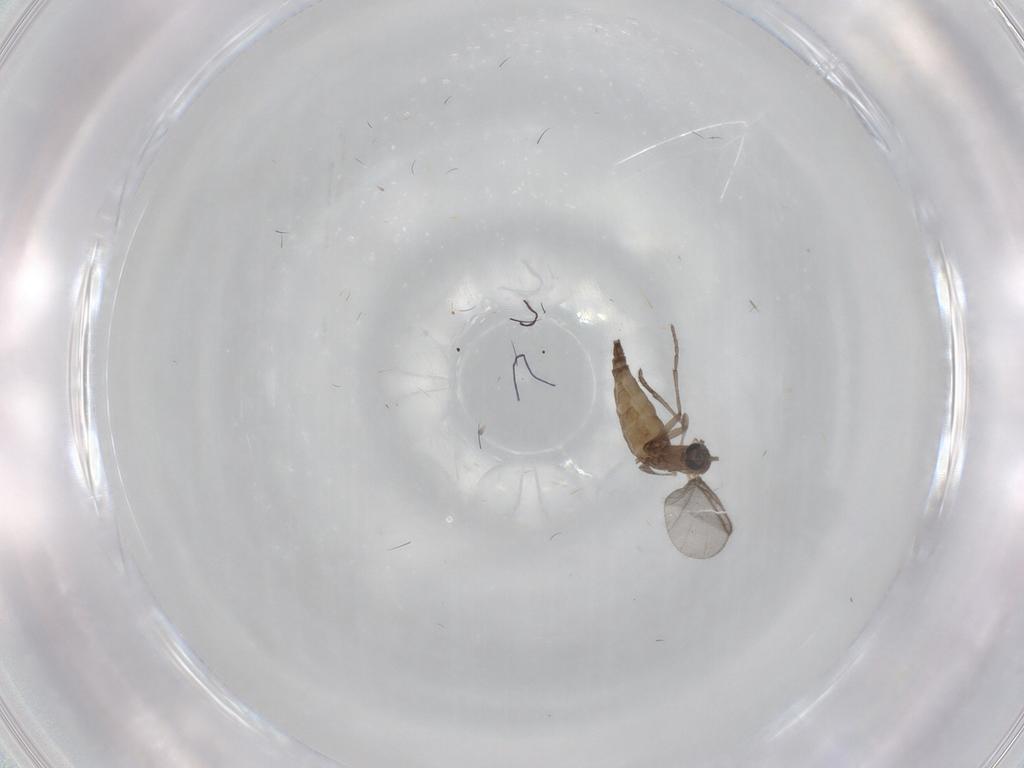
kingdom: Animalia
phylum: Arthropoda
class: Insecta
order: Diptera
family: Sciaridae
